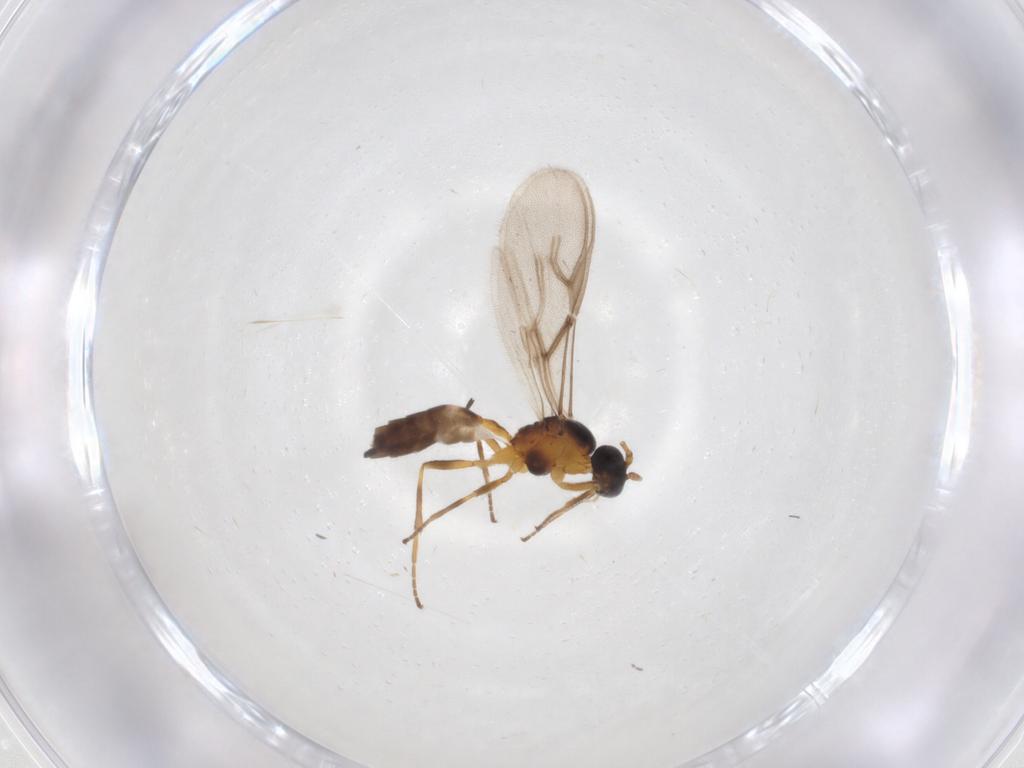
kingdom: Animalia
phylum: Arthropoda
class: Insecta
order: Hymenoptera
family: Braconidae
